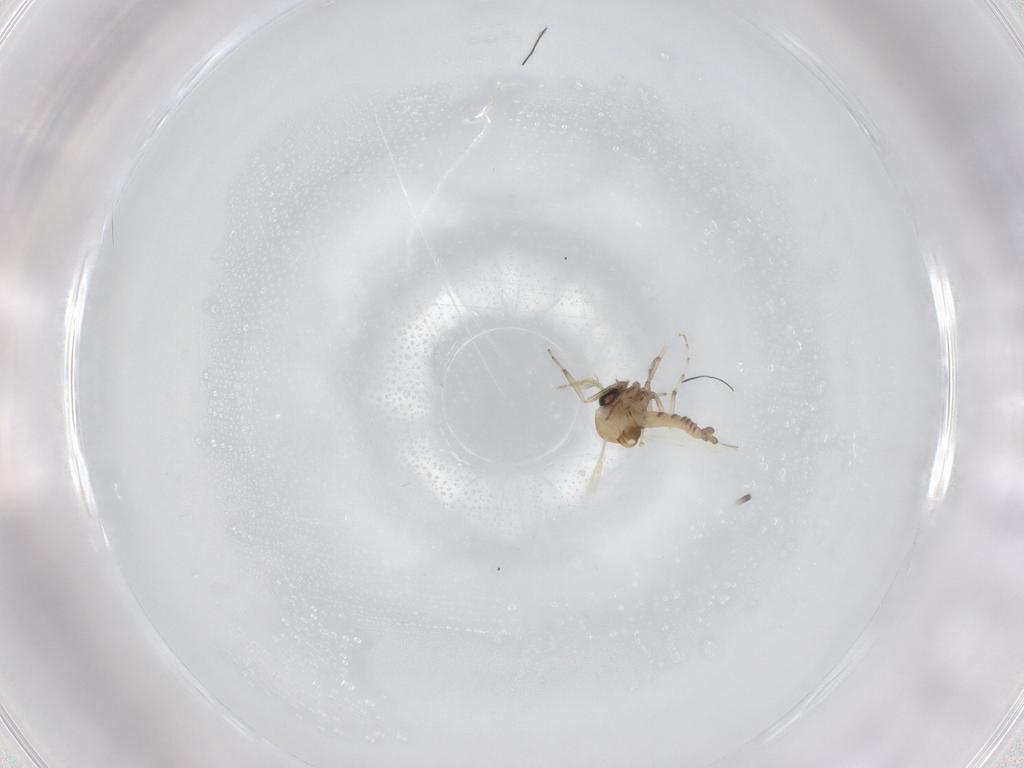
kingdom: Animalia
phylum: Arthropoda
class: Insecta
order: Diptera
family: Ceratopogonidae
